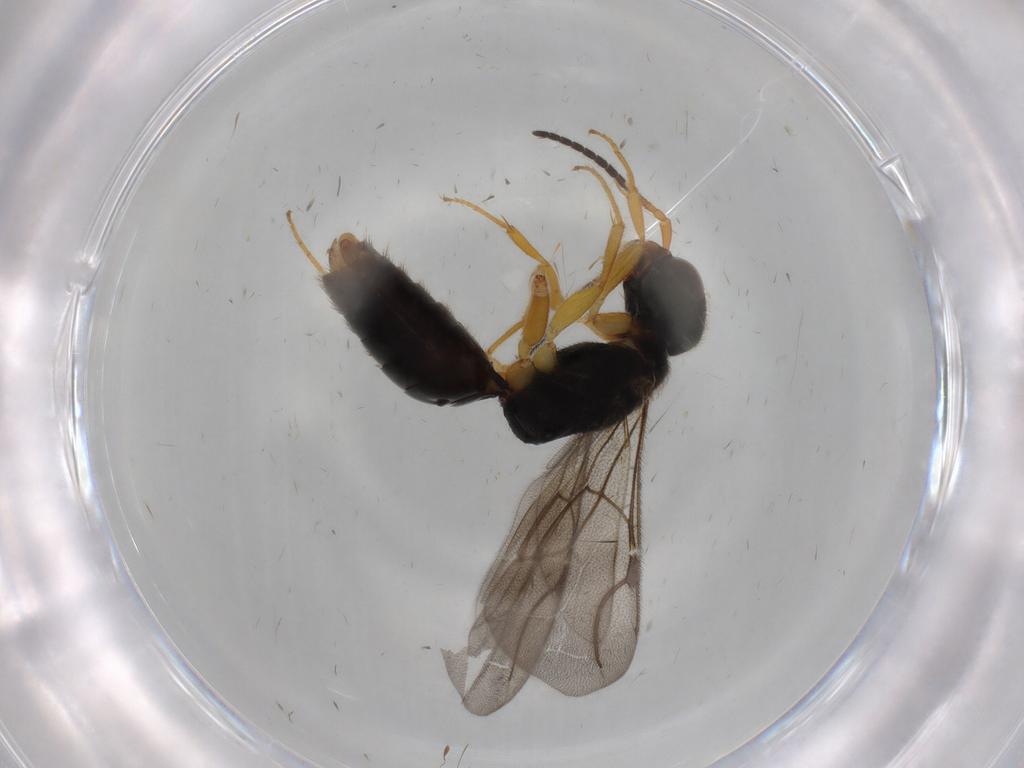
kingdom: Animalia
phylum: Arthropoda
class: Insecta
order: Hymenoptera
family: Bethylidae
